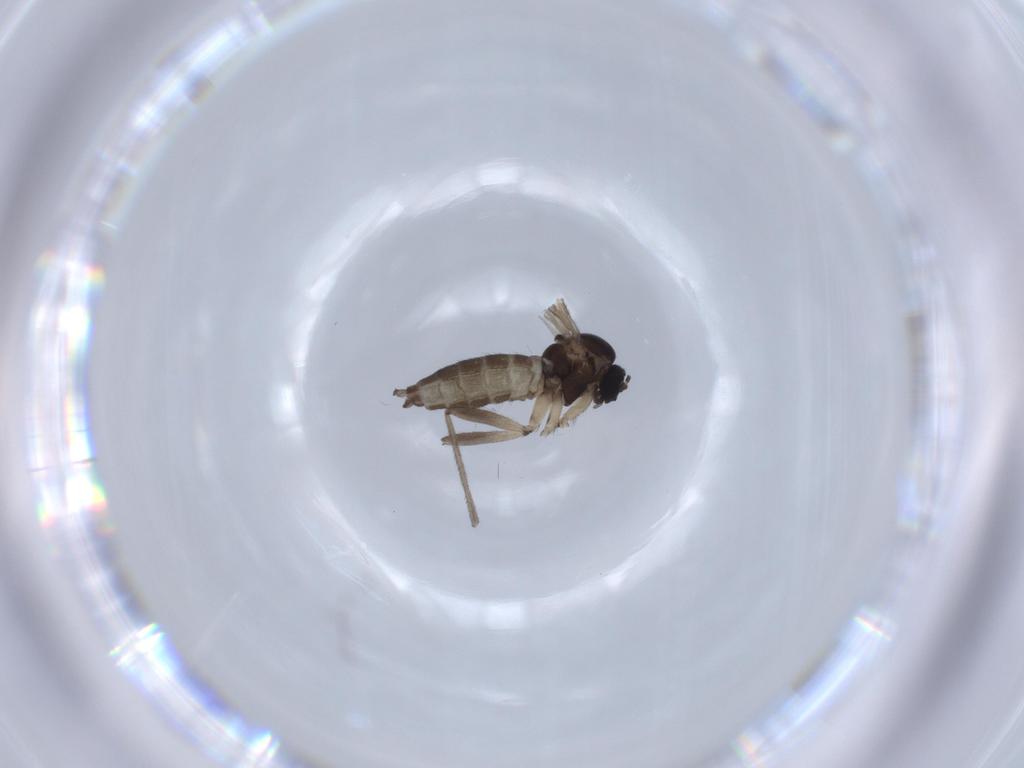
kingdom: Animalia
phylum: Arthropoda
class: Insecta
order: Diptera
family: Sciaridae
